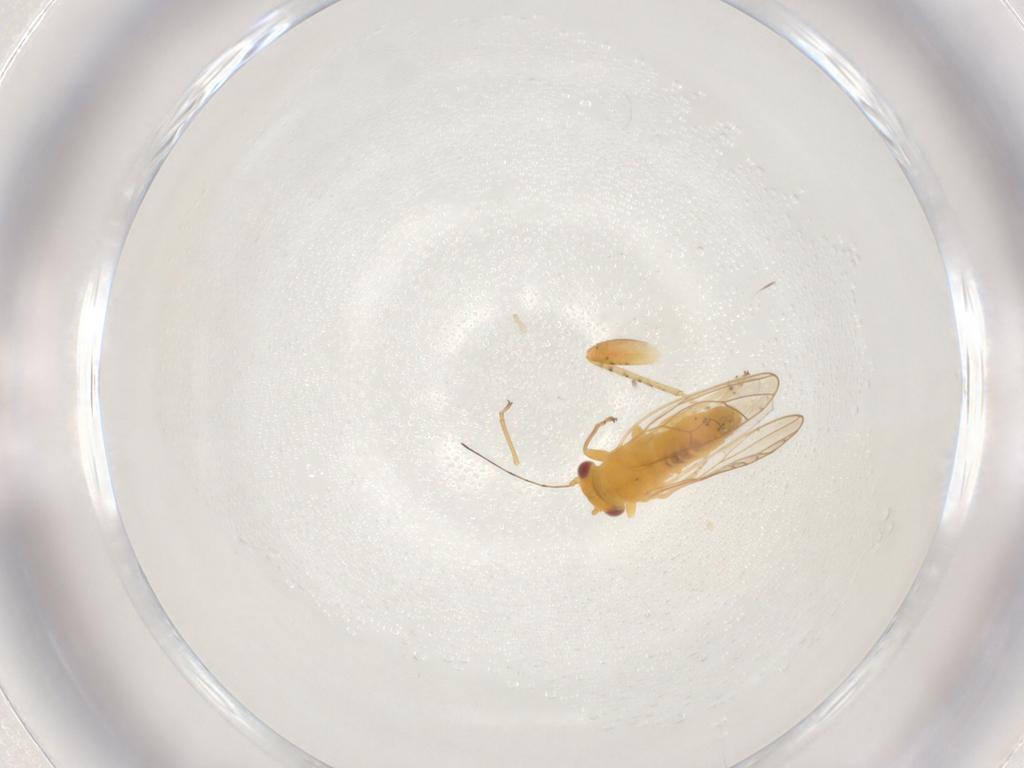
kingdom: Animalia
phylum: Arthropoda
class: Insecta
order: Hemiptera
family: Psyllidae
